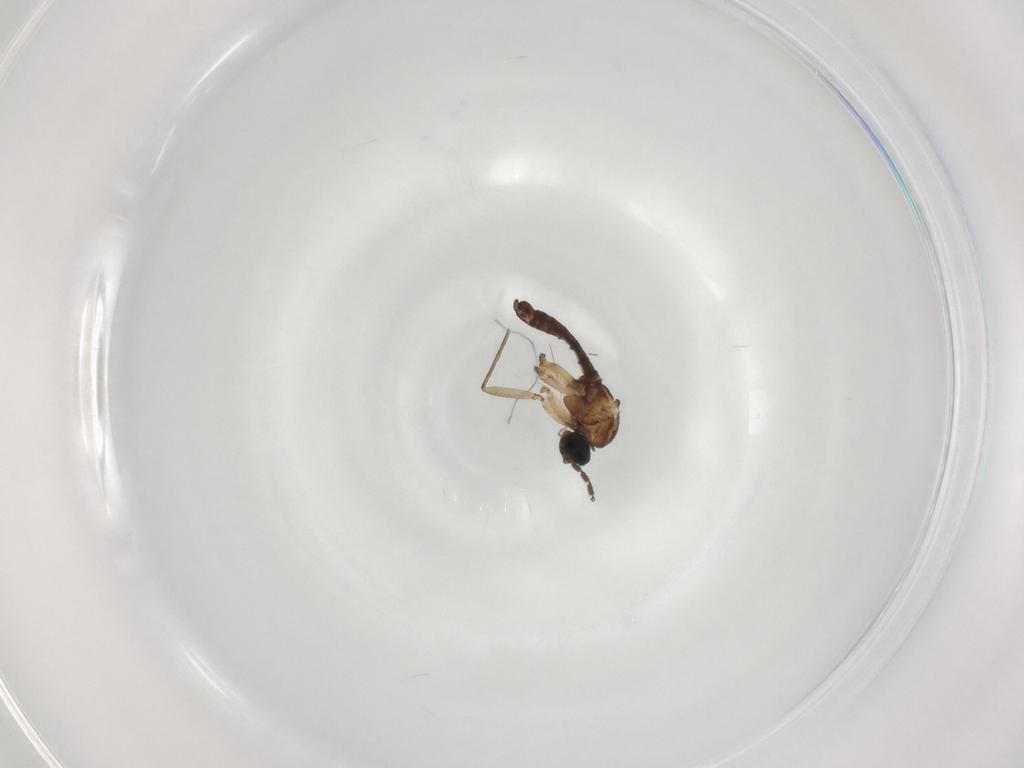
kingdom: Animalia
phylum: Arthropoda
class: Insecta
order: Diptera
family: Sciaridae
